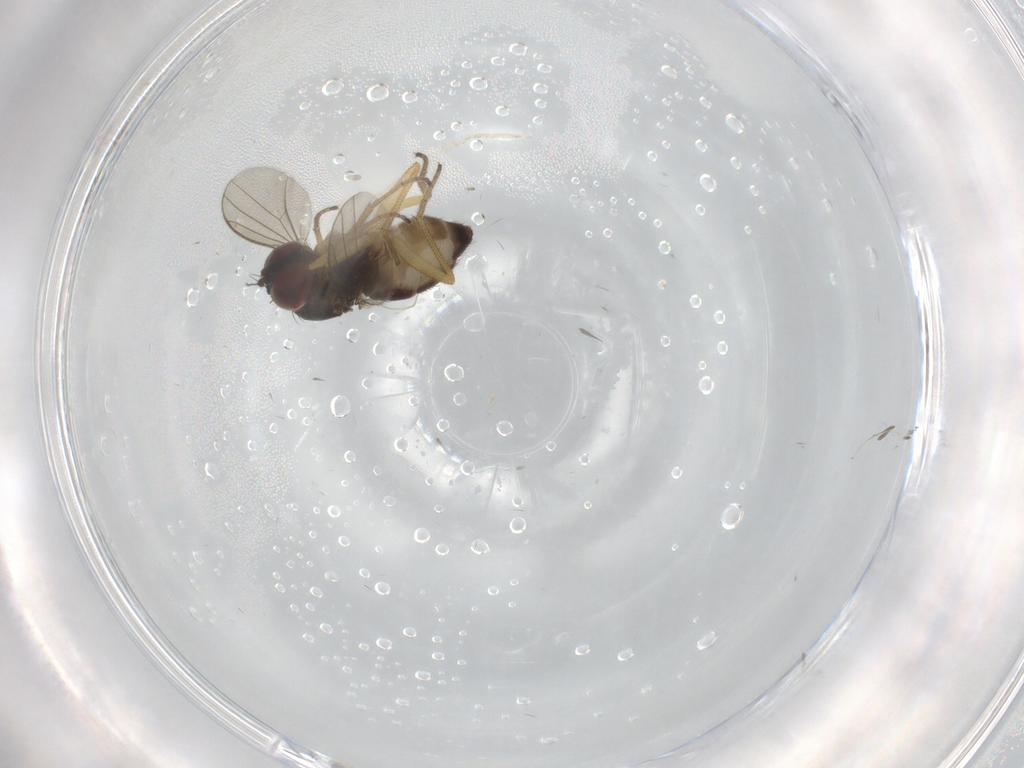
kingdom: Animalia
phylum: Arthropoda
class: Insecta
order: Diptera
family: Dolichopodidae
